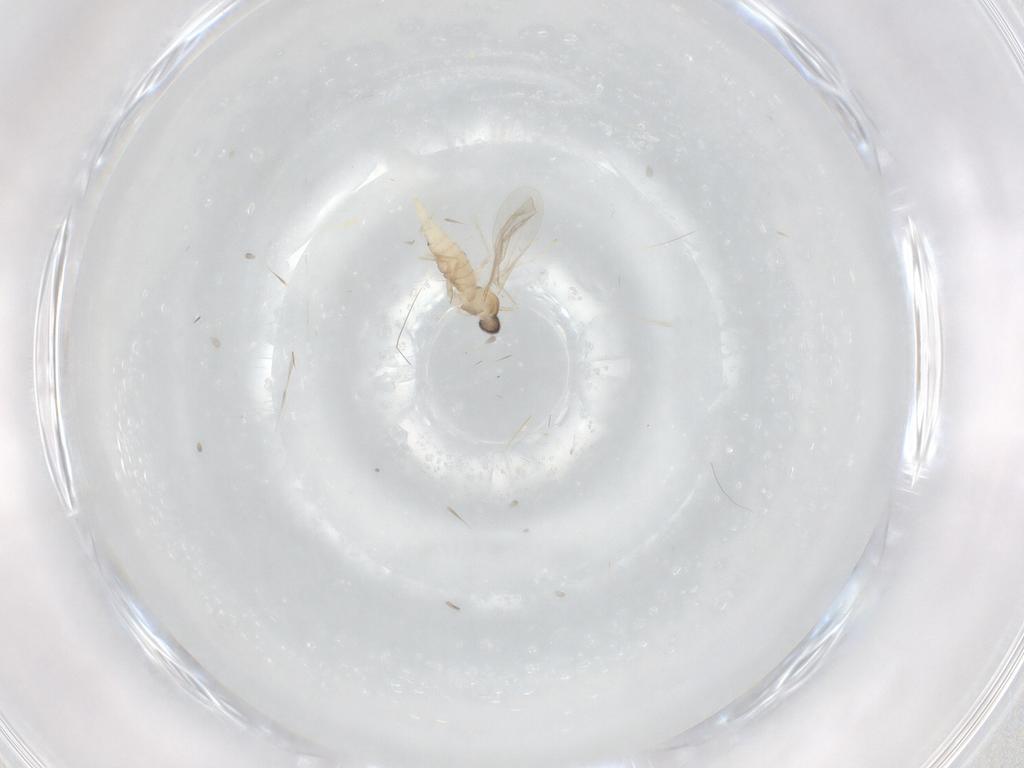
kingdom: Animalia
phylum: Arthropoda
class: Insecta
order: Diptera
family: Cecidomyiidae
